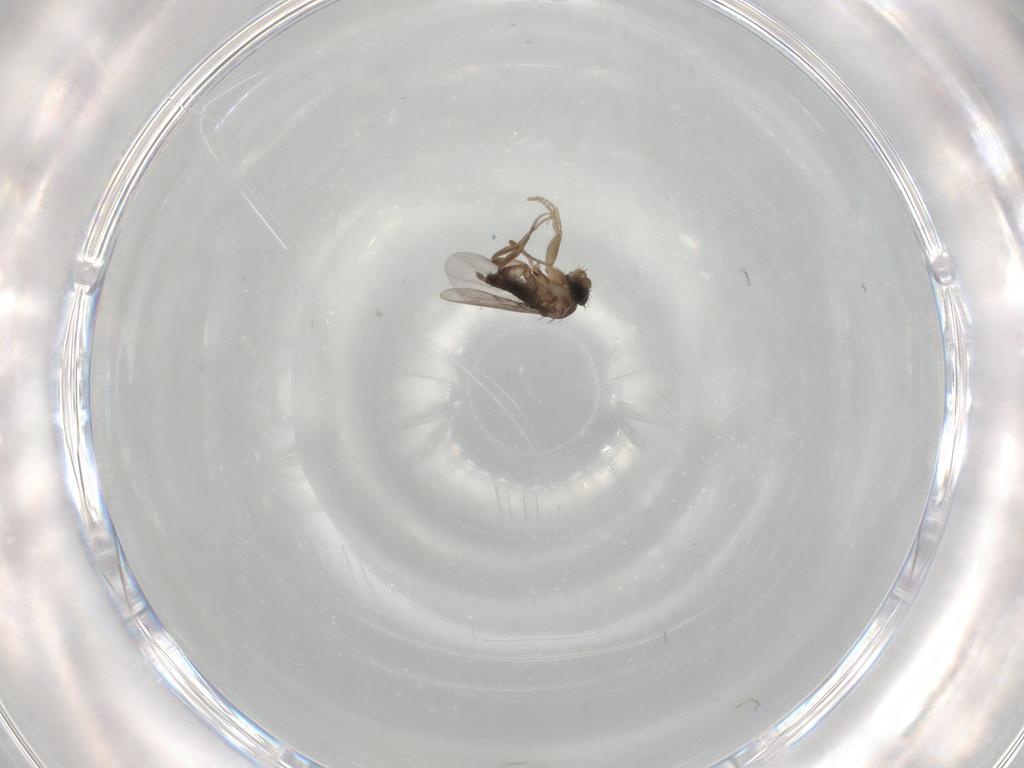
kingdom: Animalia
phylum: Arthropoda
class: Insecta
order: Diptera
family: Phoridae
